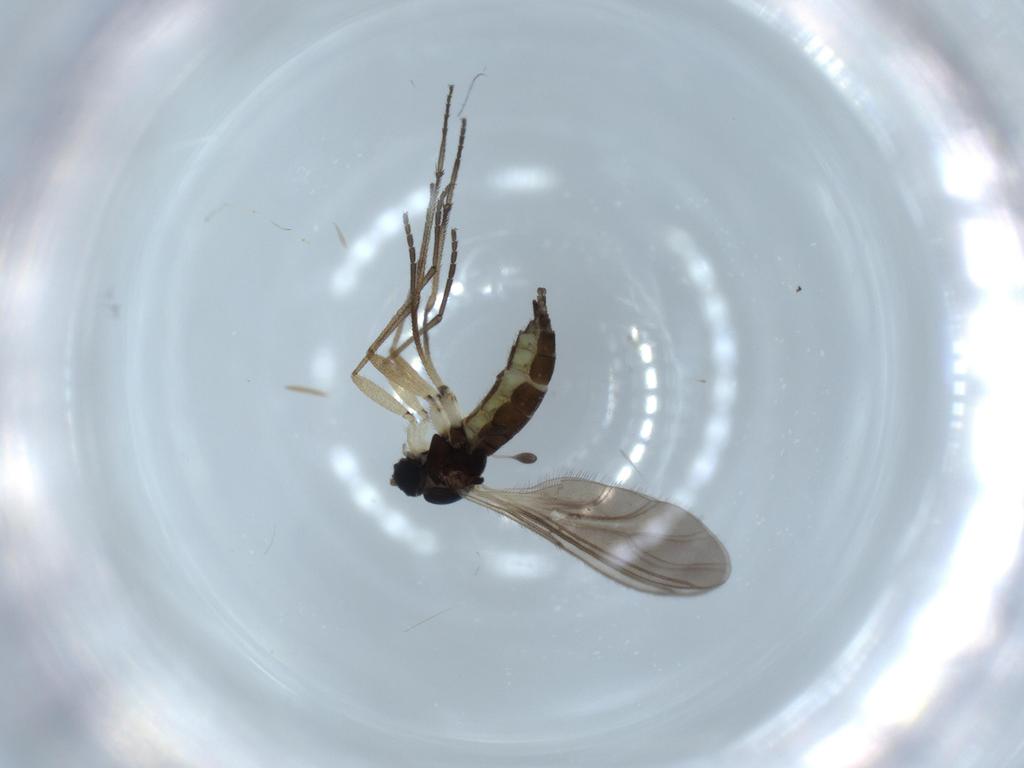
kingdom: Animalia
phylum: Arthropoda
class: Insecta
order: Diptera
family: Sciaridae
